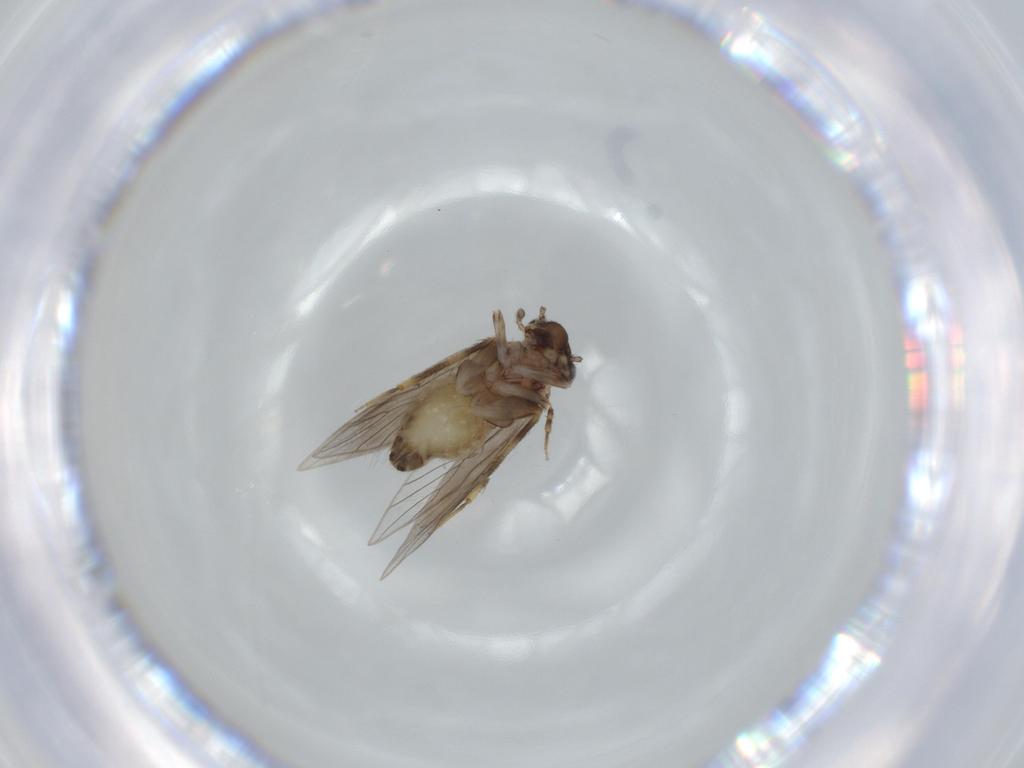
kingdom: Animalia
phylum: Arthropoda
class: Insecta
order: Psocodea
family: Lepidopsocidae
